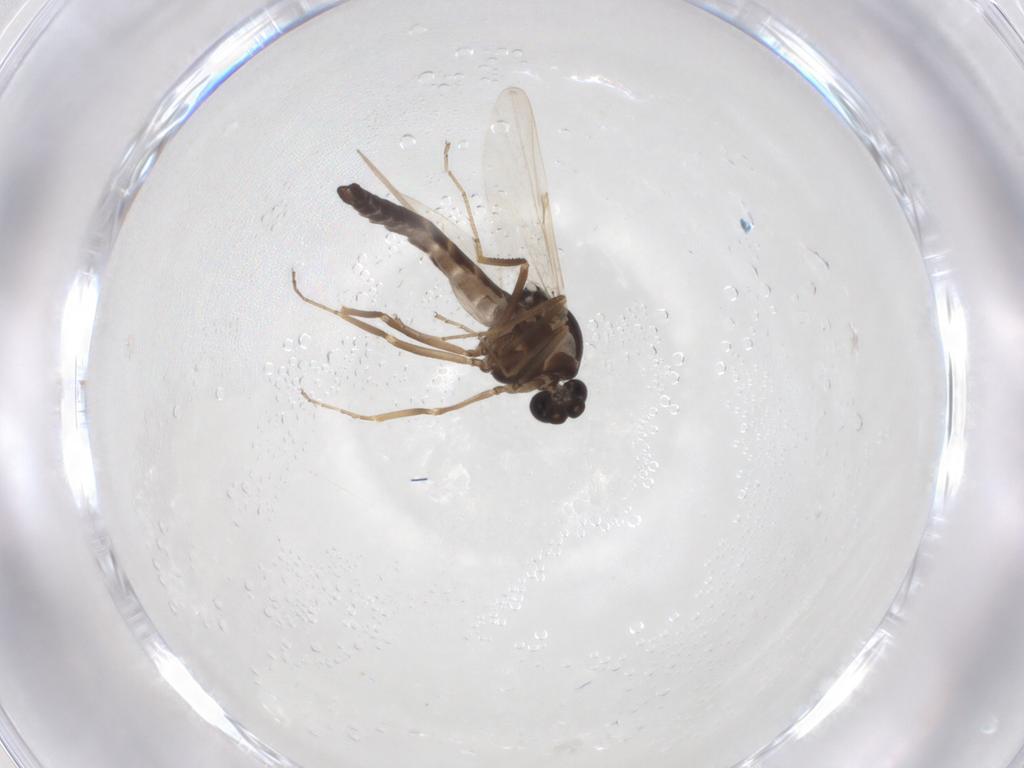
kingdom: Animalia
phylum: Arthropoda
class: Insecta
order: Diptera
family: Ceratopogonidae
